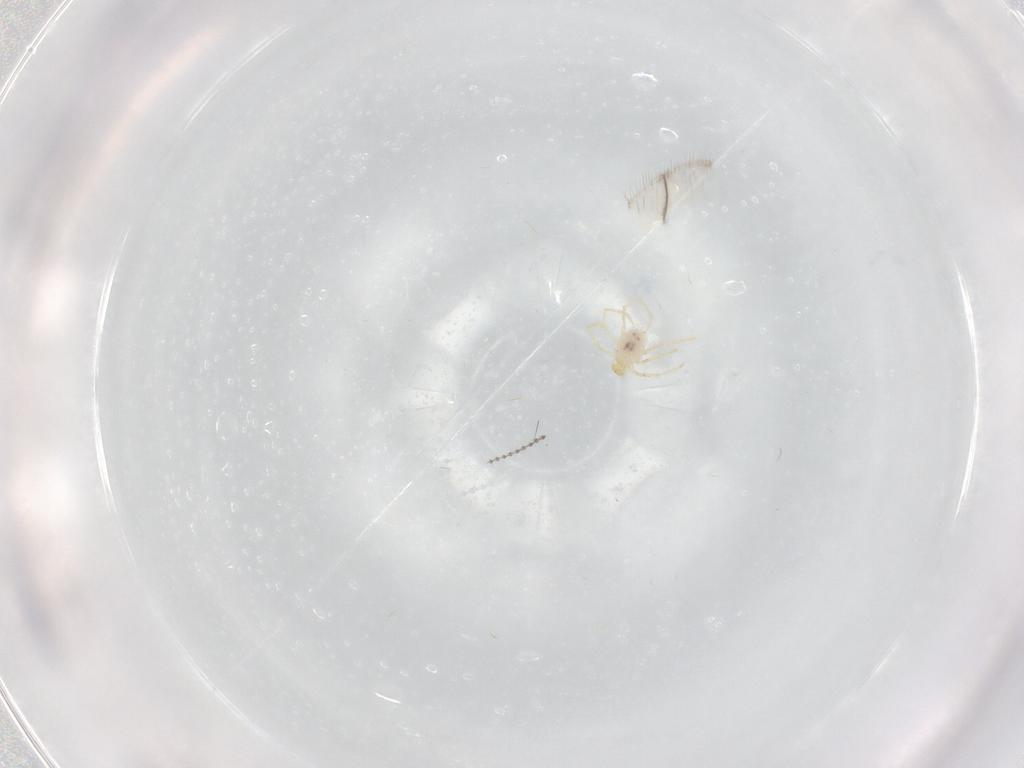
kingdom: Animalia
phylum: Arthropoda
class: Arachnida
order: Trombidiformes
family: Erythraeidae
